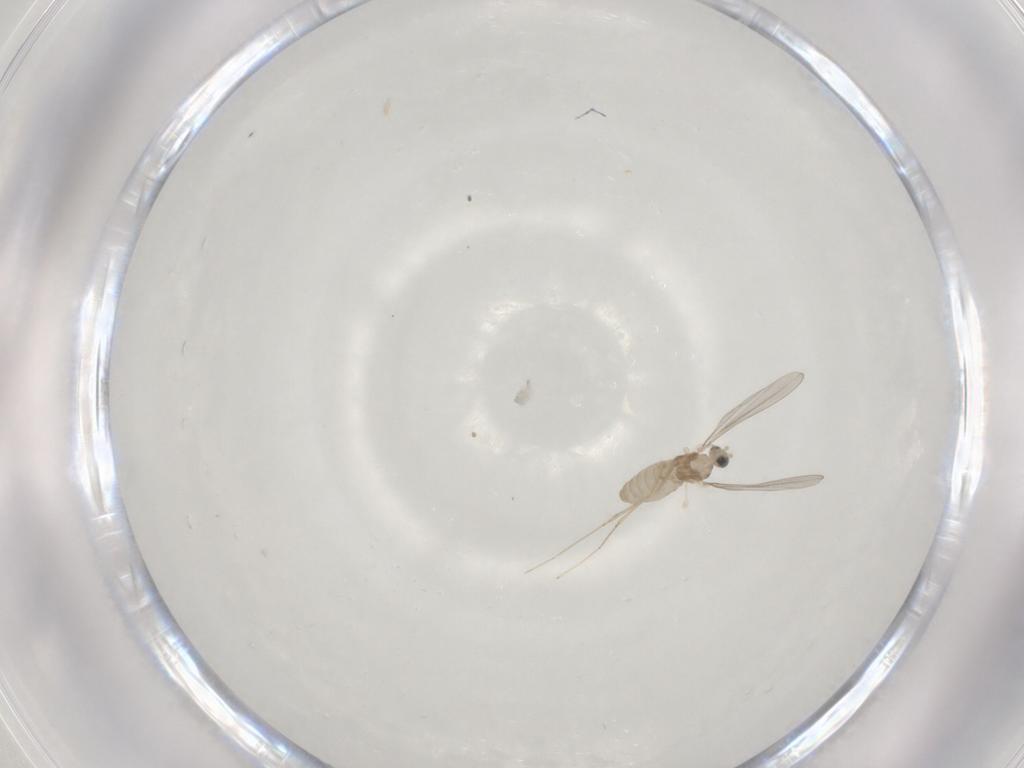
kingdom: Animalia
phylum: Arthropoda
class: Insecta
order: Diptera
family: Cecidomyiidae
